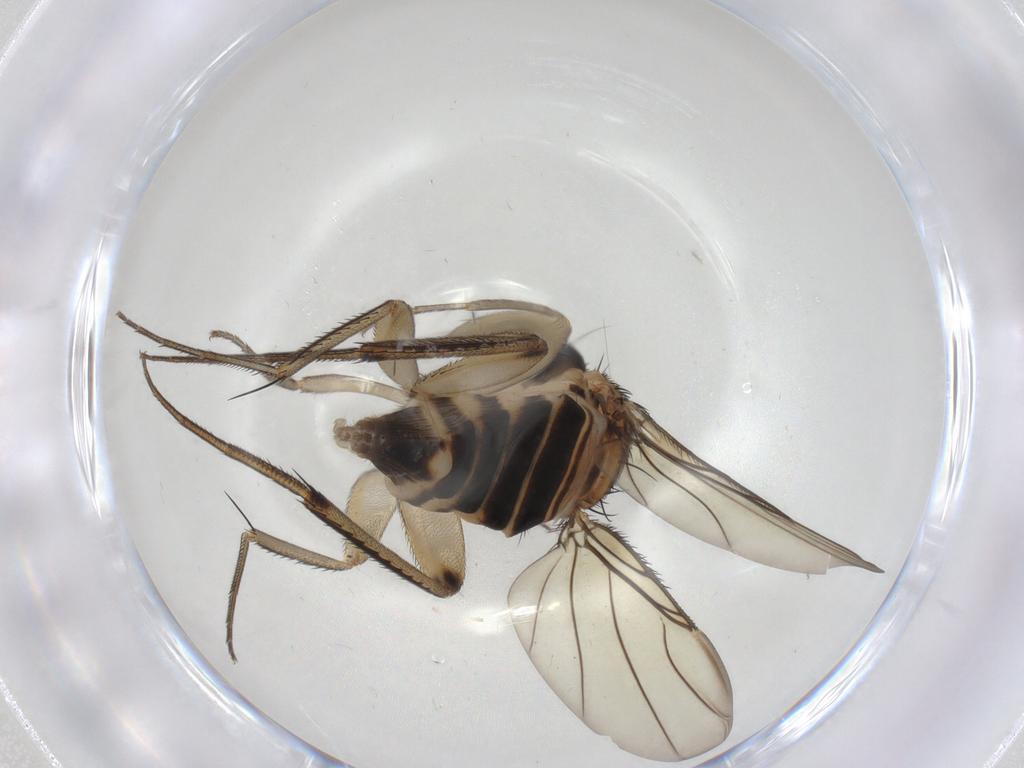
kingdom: Animalia
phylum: Arthropoda
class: Insecta
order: Diptera
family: Phoridae
